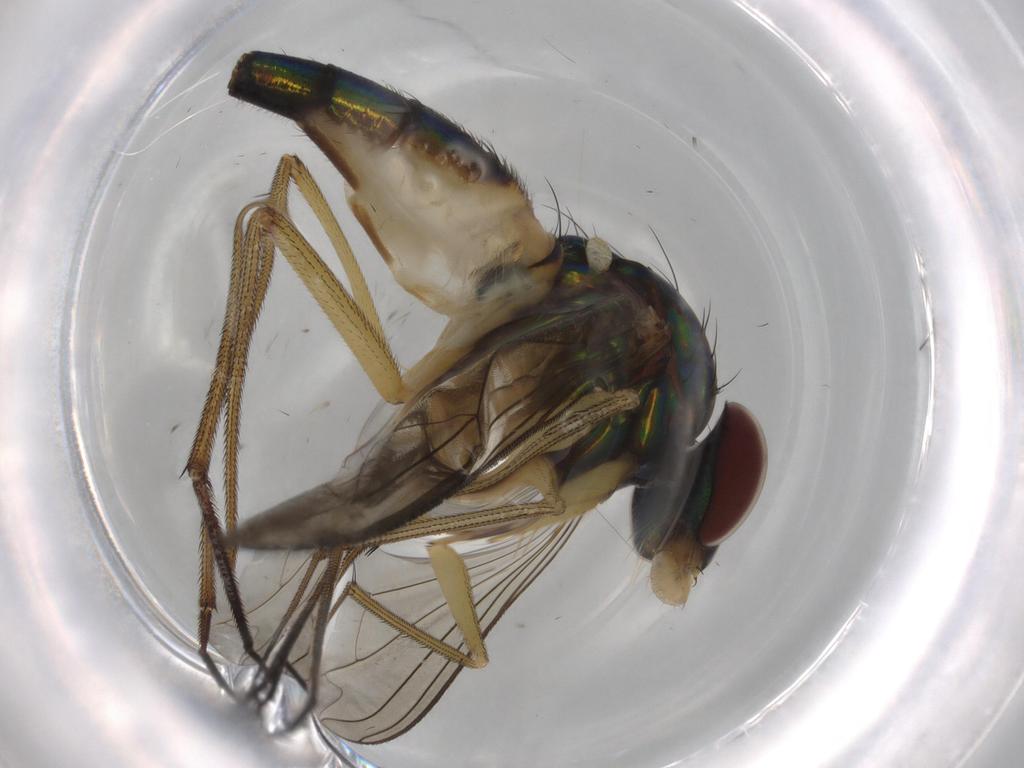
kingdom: Animalia
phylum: Arthropoda
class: Insecta
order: Diptera
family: Dolichopodidae
